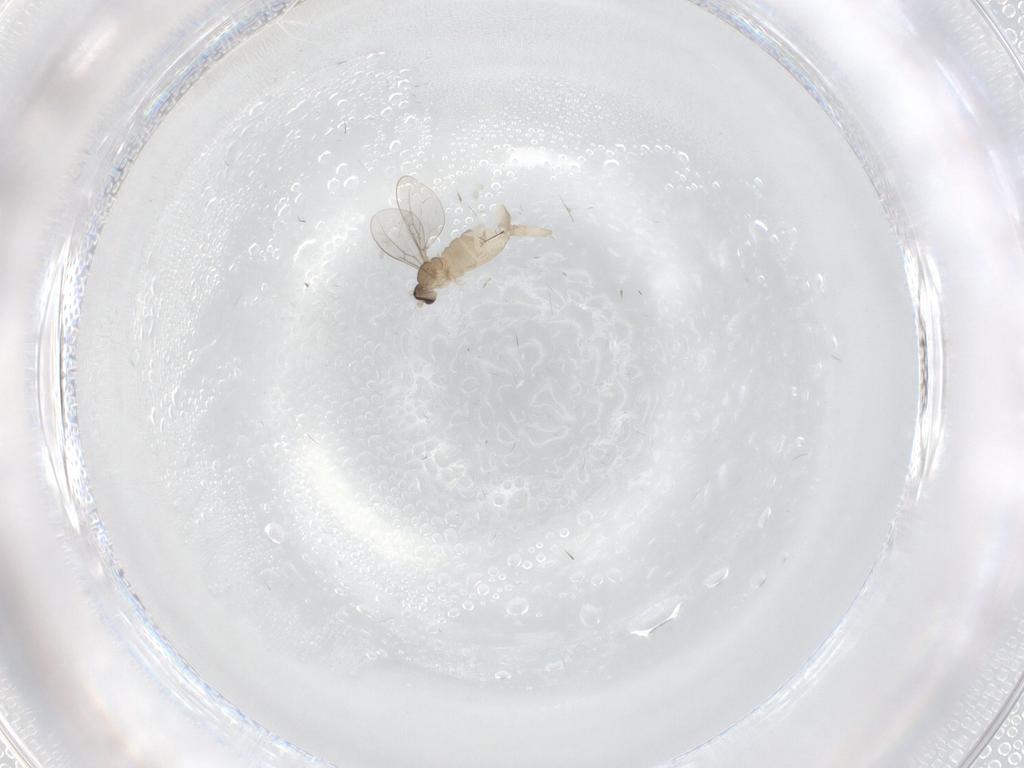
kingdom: Animalia
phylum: Arthropoda
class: Insecta
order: Diptera
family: Cecidomyiidae
